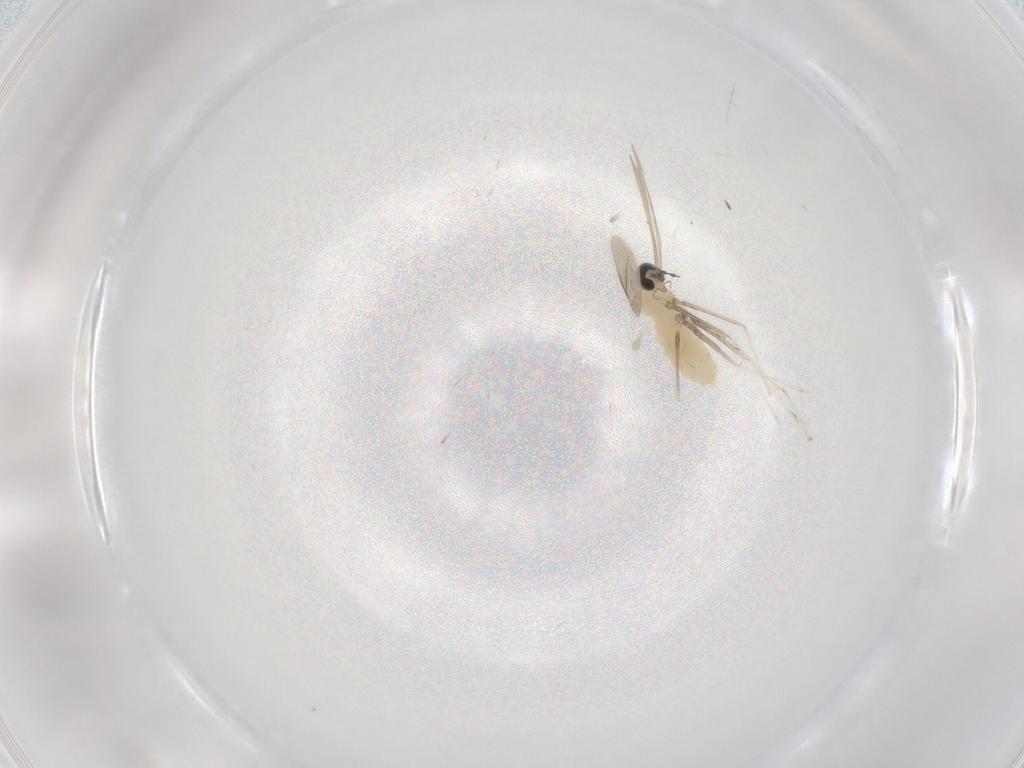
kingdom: Animalia
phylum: Arthropoda
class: Insecta
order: Diptera
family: Cecidomyiidae
